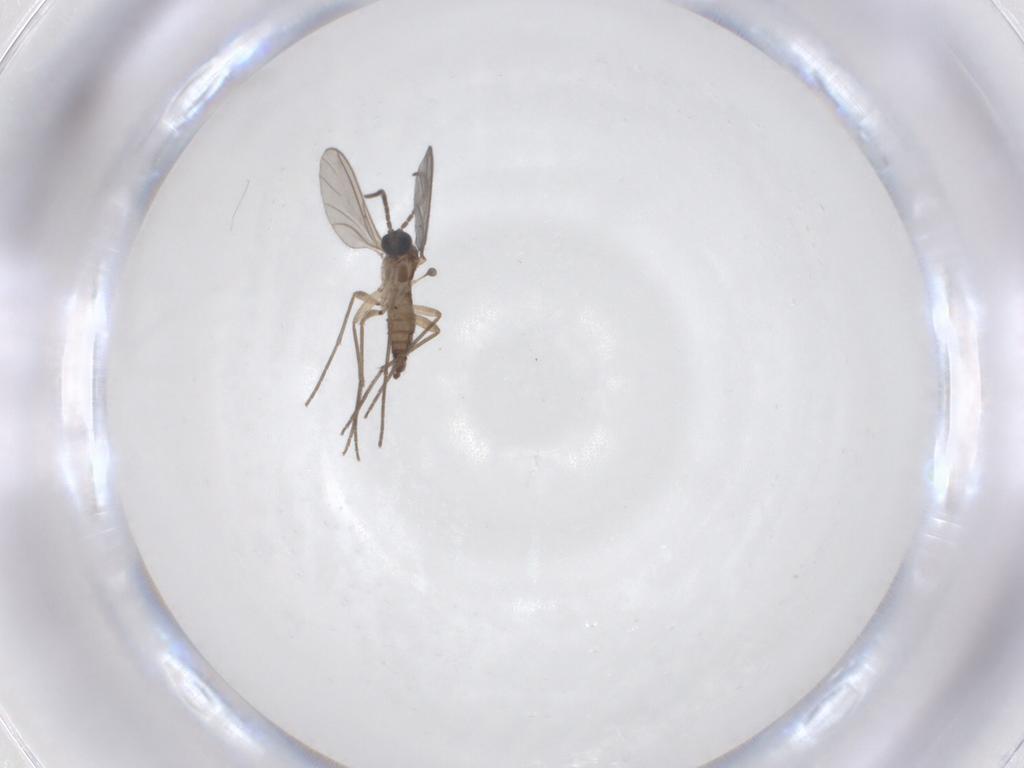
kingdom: Animalia
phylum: Arthropoda
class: Insecta
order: Diptera
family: Sciaridae
